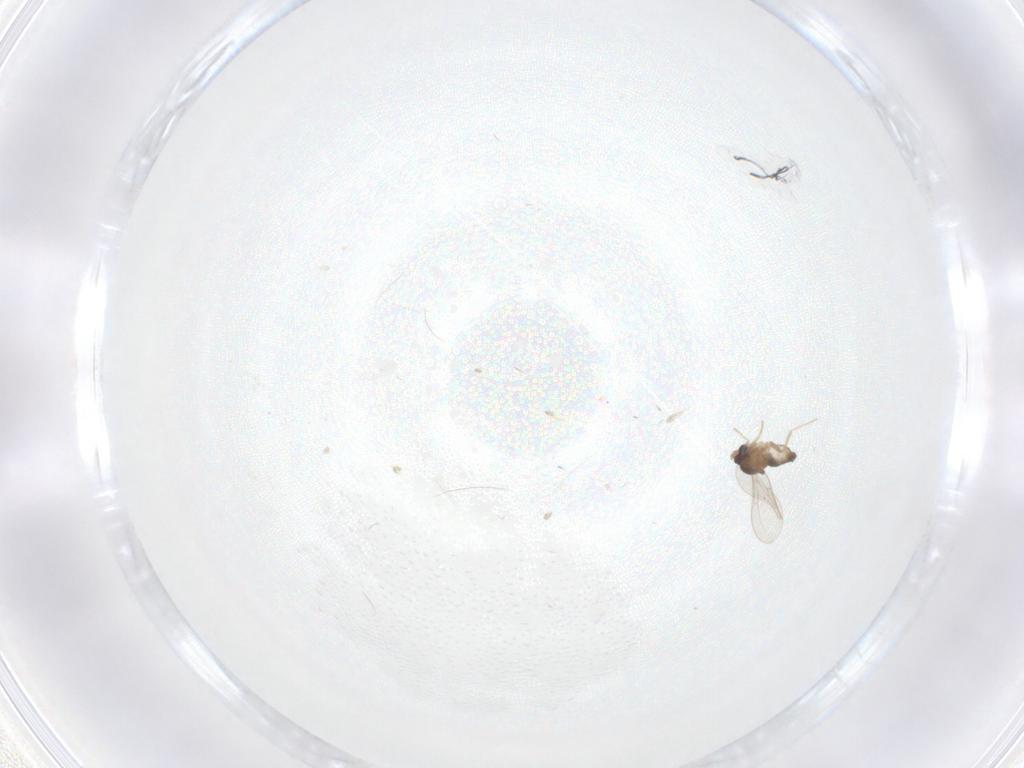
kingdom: Animalia
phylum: Arthropoda
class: Insecta
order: Diptera
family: Cecidomyiidae
